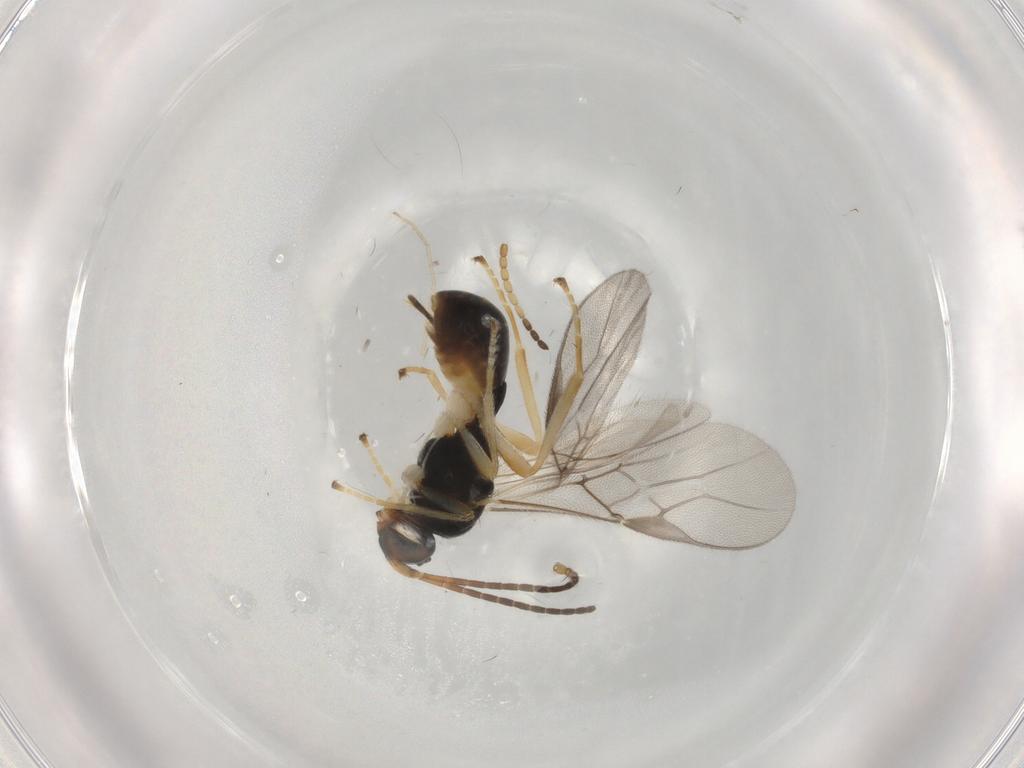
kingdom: Animalia
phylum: Arthropoda
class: Insecta
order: Hymenoptera
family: Braconidae
